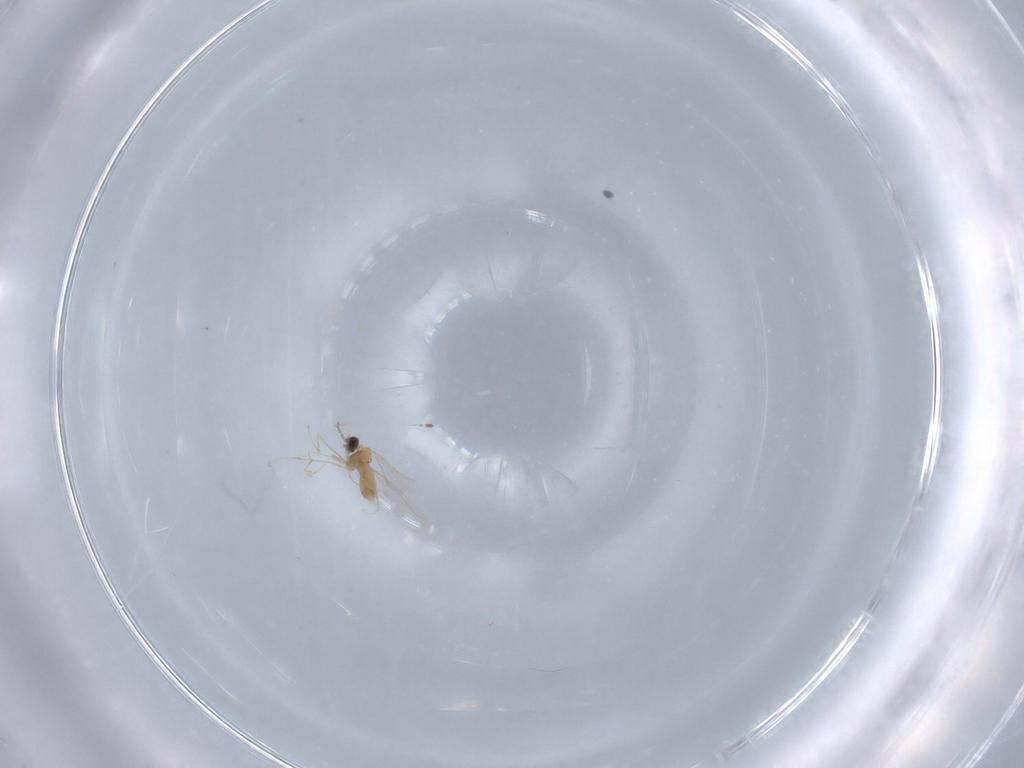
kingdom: Animalia
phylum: Arthropoda
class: Insecta
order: Diptera
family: Cecidomyiidae
